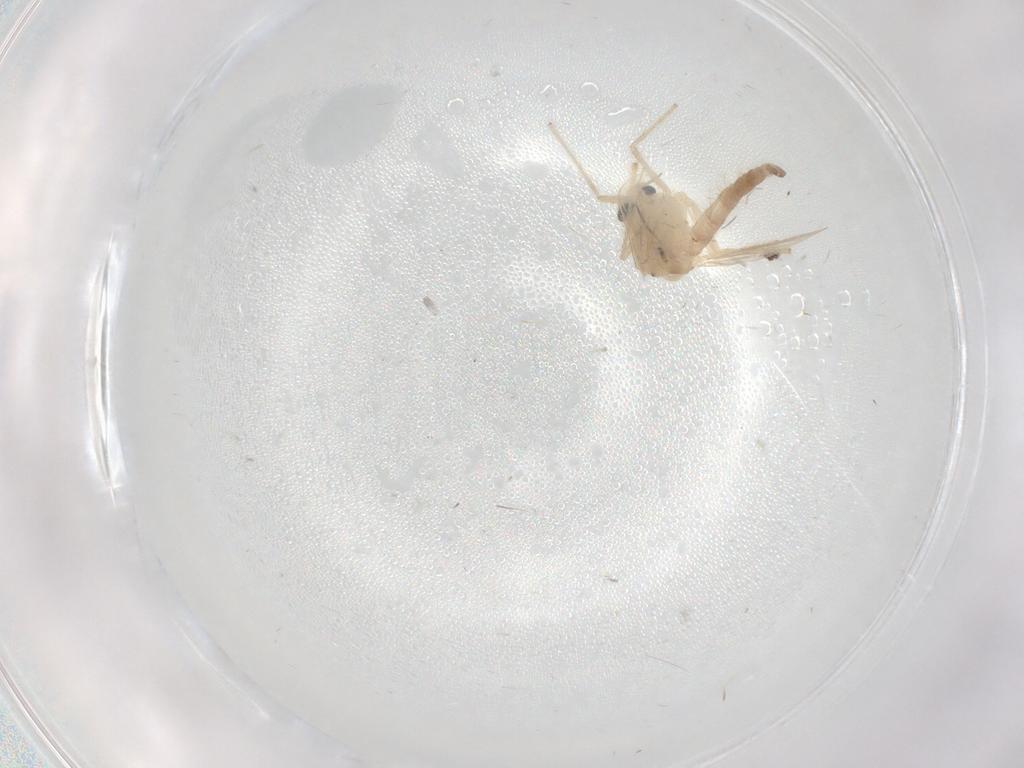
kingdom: Animalia
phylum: Arthropoda
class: Insecta
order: Diptera
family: Chironomidae
